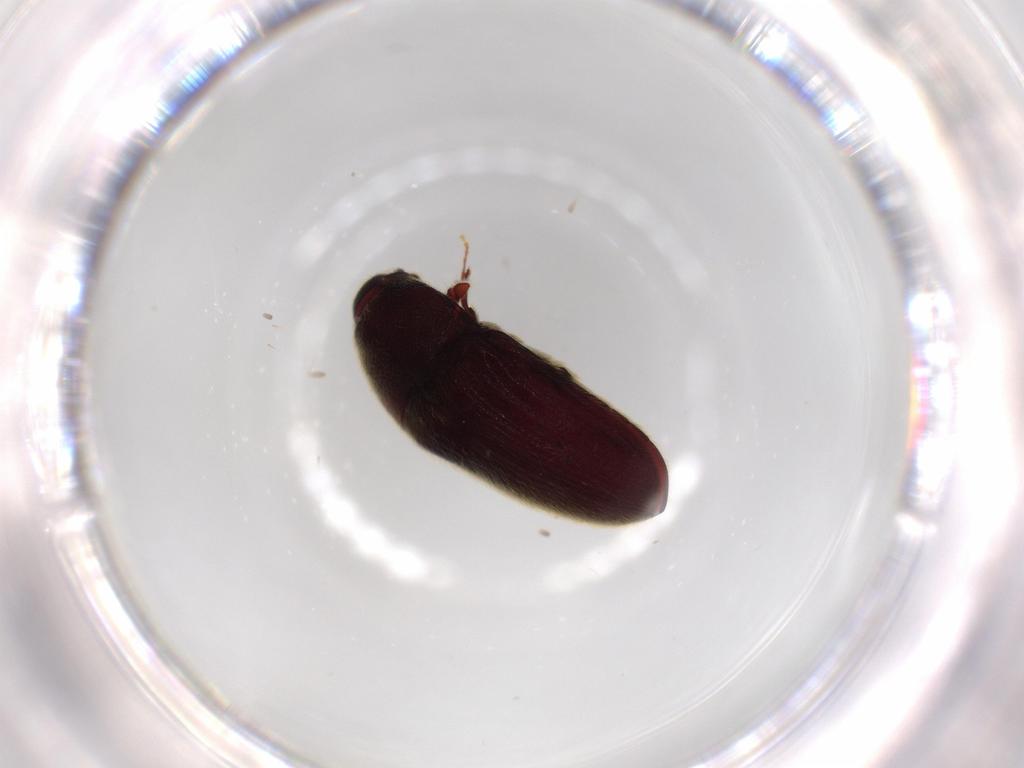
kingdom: Animalia
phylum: Arthropoda
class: Insecta
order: Coleoptera
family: Throscidae
